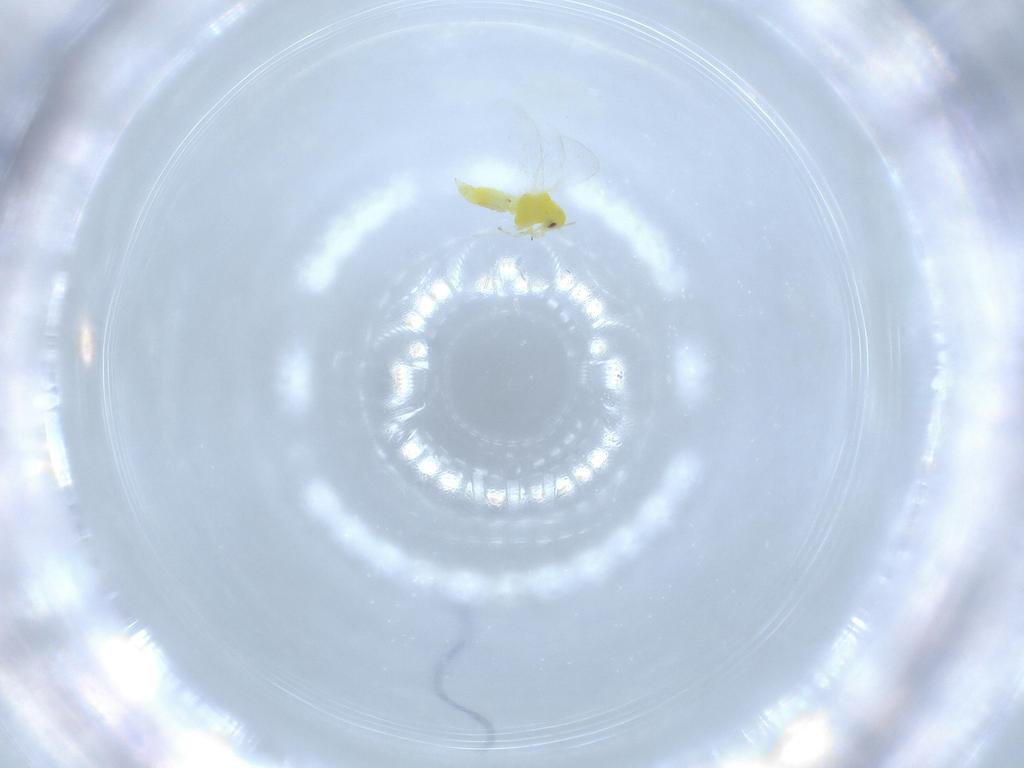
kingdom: Animalia
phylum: Arthropoda
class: Insecta
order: Hemiptera
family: Aleyrodidae
